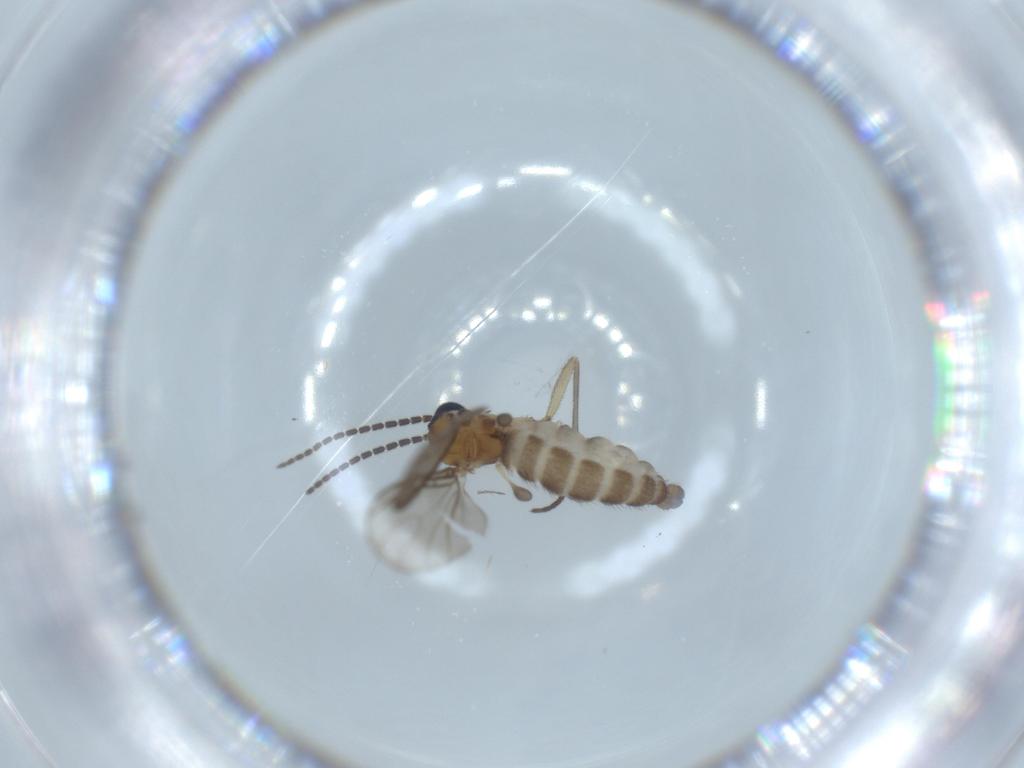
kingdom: Animalia
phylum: Arthropoda
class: Insecta
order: Diptera
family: Sciaridae
